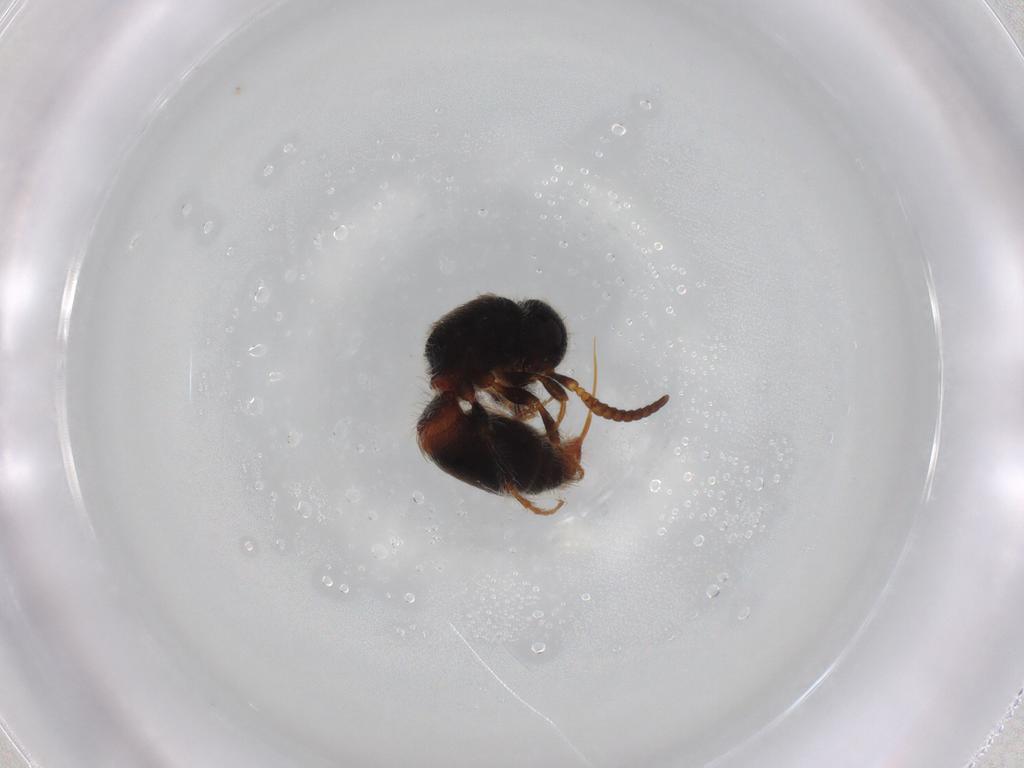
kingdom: Animalia
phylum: Arthropoda
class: Insecta
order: Hymenoptera
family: Mutillidae
